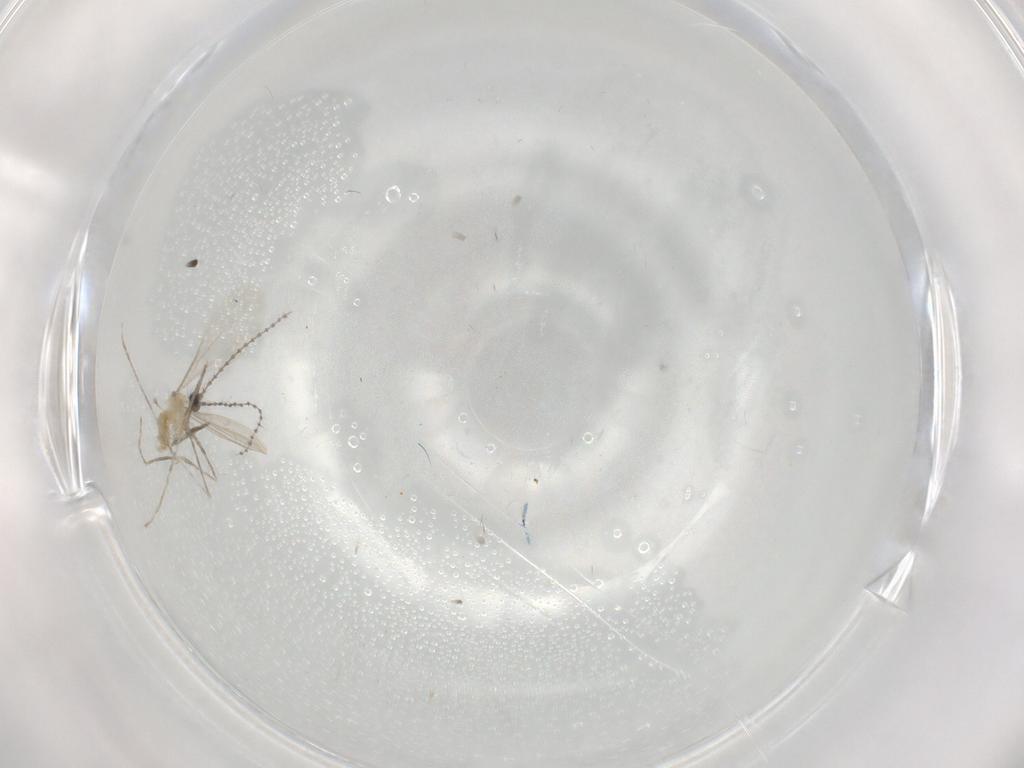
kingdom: Animalia
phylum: Arthropoda
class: Insecta
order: Diptera
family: Cecidomyiidae
